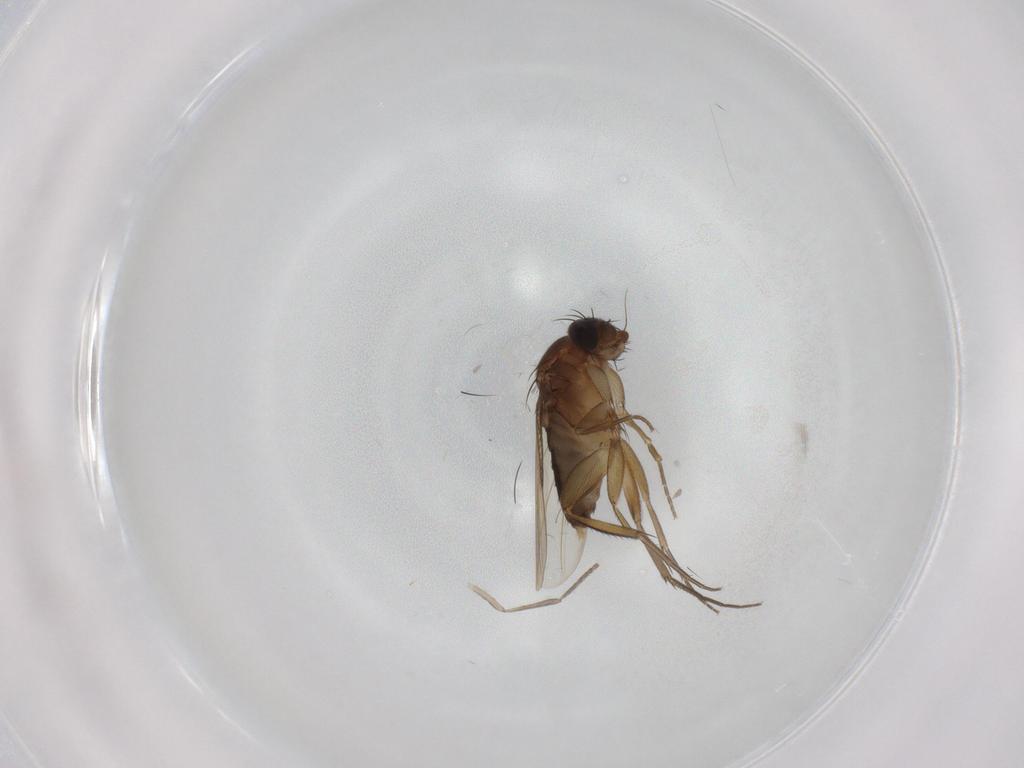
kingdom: Animalia
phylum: Arthropoda
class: Insecta
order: Diptera
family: Phoridae
